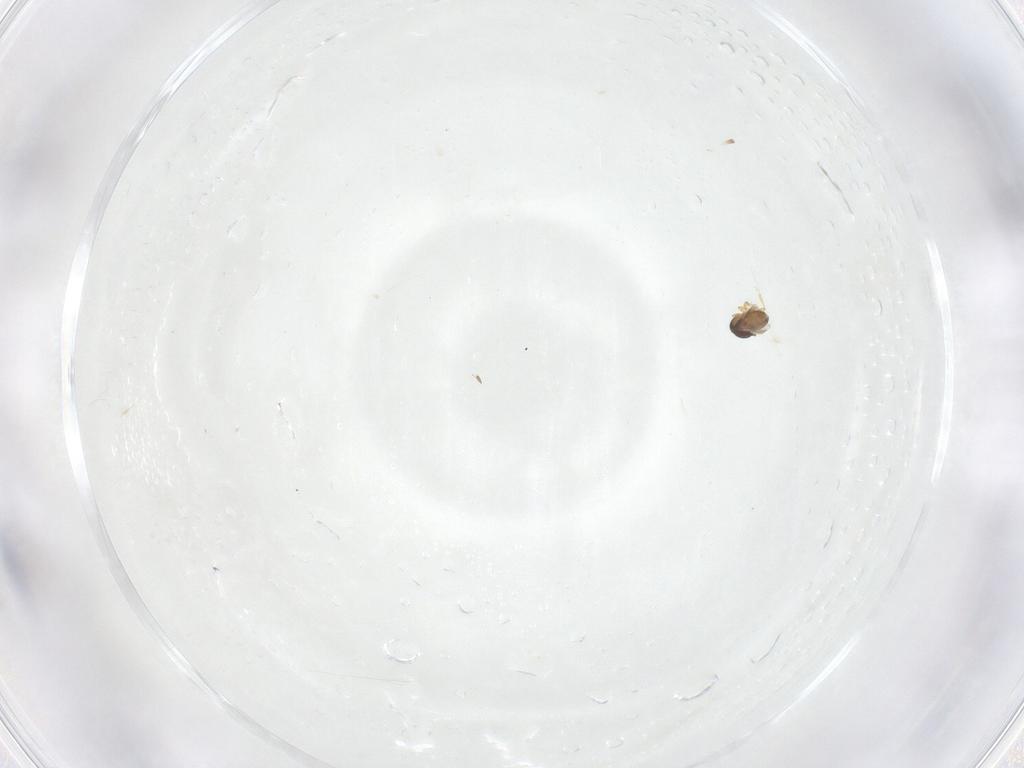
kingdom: Animalia
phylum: Arthropoda
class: Insecta
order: Hymenoptera
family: Platygastridae
